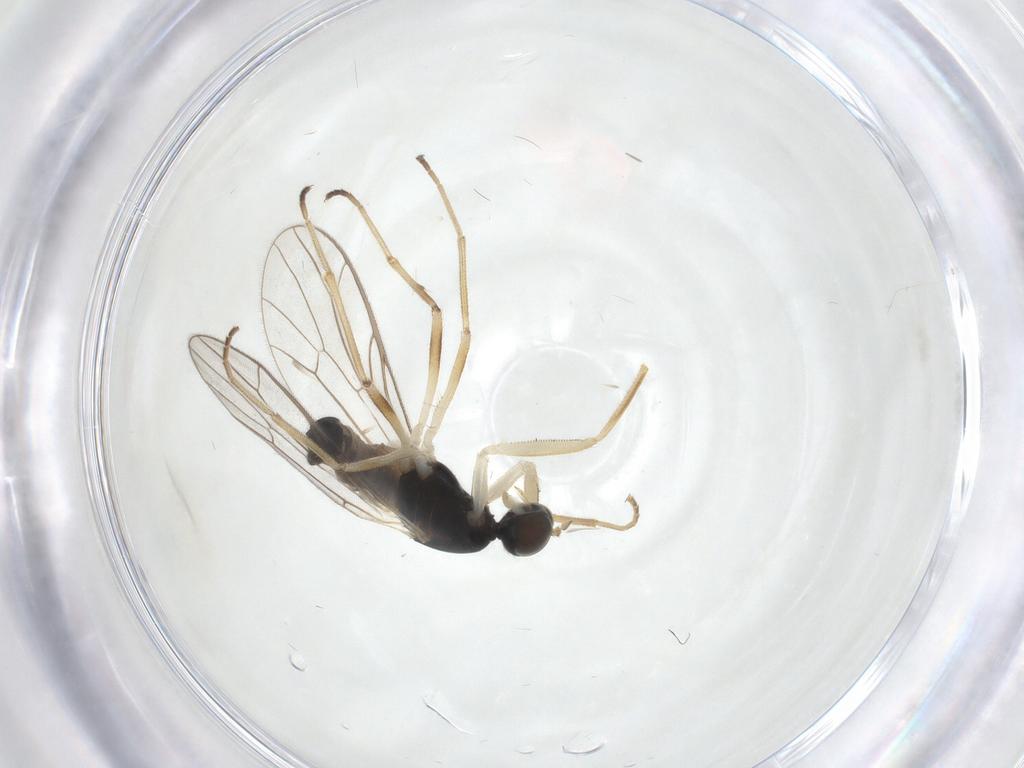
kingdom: Animalia
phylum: Arthropoda
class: Insecta
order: Diptera
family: Empididae
